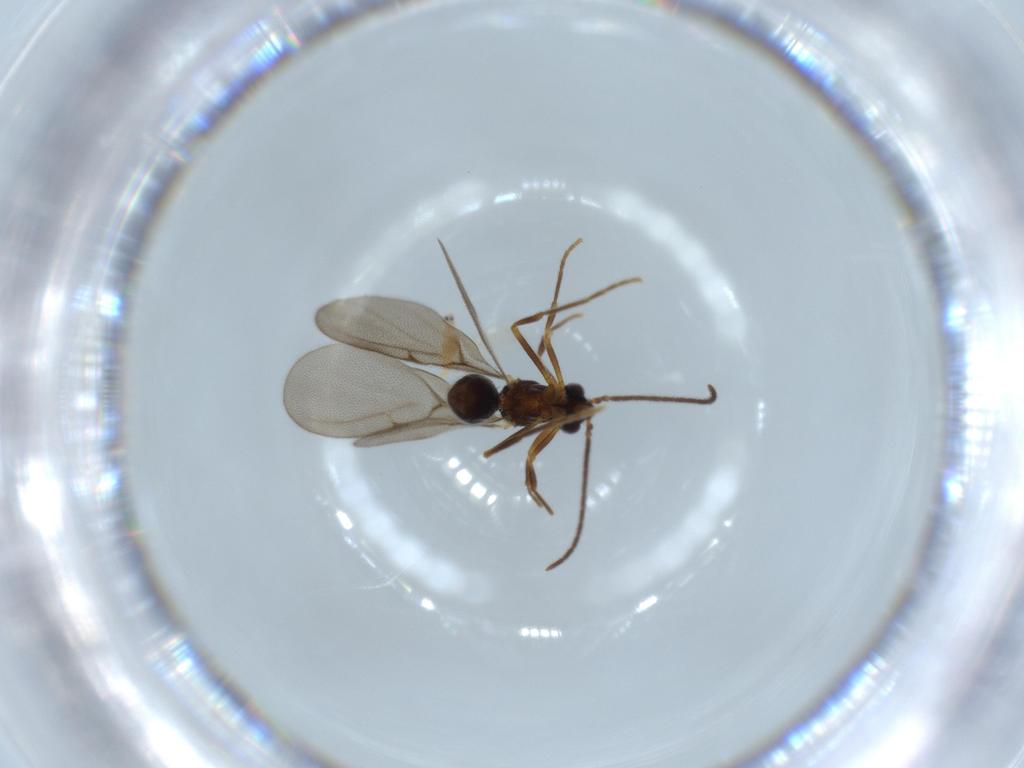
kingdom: Animalia
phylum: Arthropoda
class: Insecta
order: Hymenoptera
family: Formicidae
